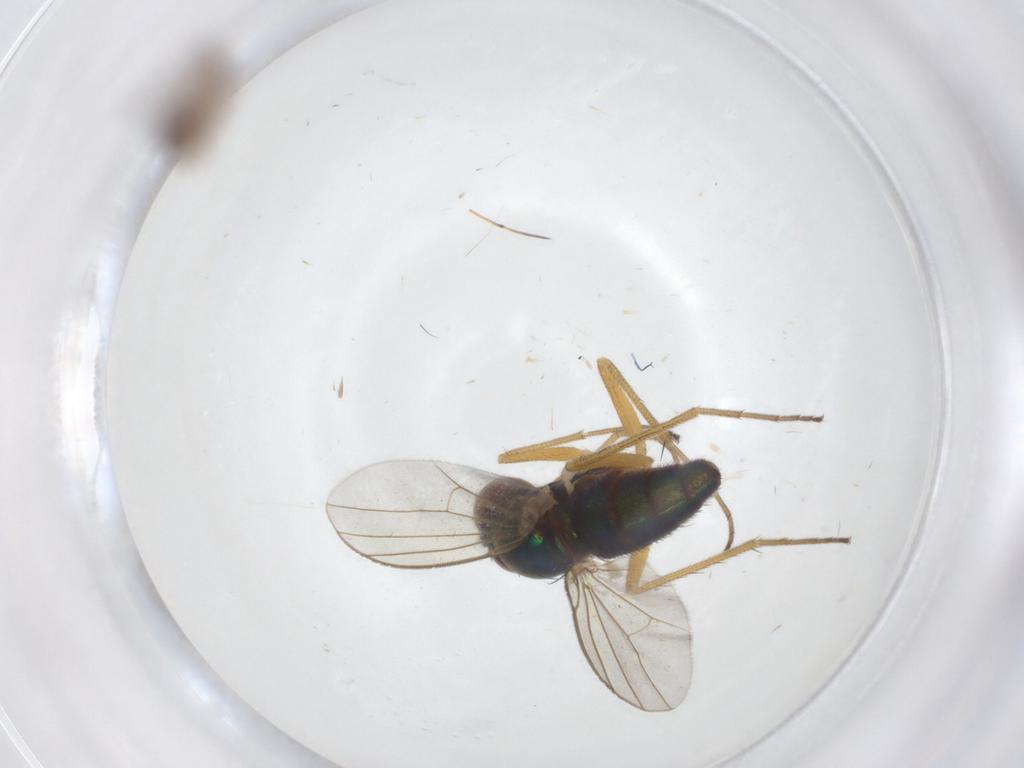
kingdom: Animalia
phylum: Arthropoda
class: Insecta
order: Diptera
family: Dolichopodidae
